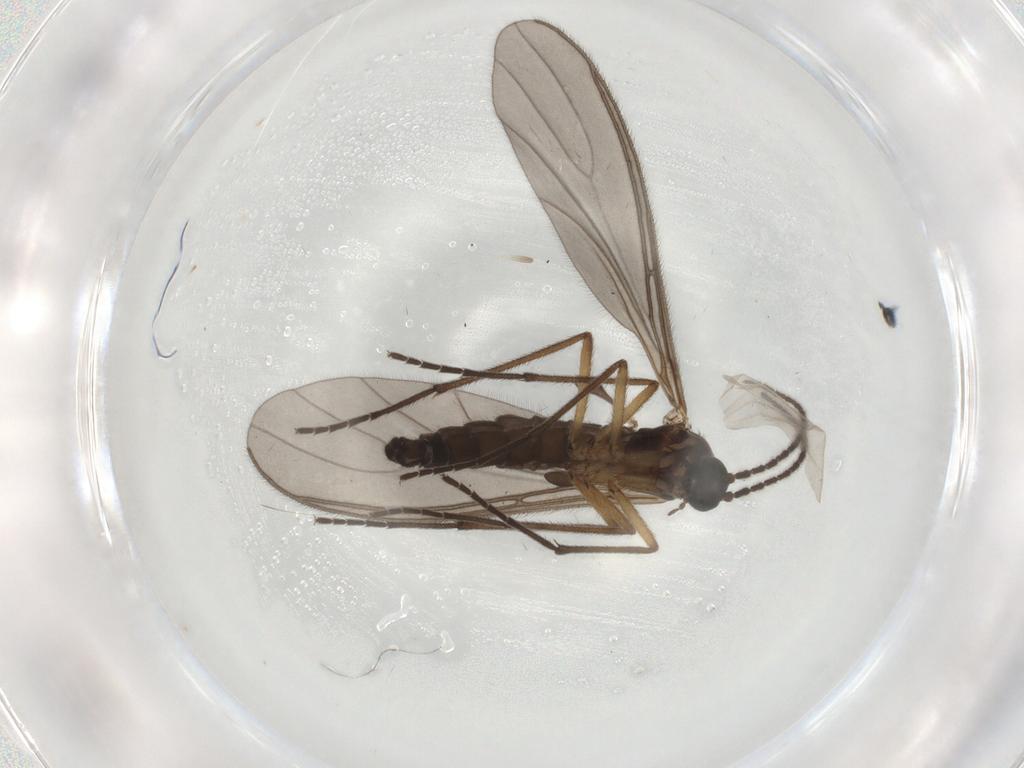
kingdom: Animalia
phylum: Arthropoda
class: Insecta
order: Diptera
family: Sciaridae
